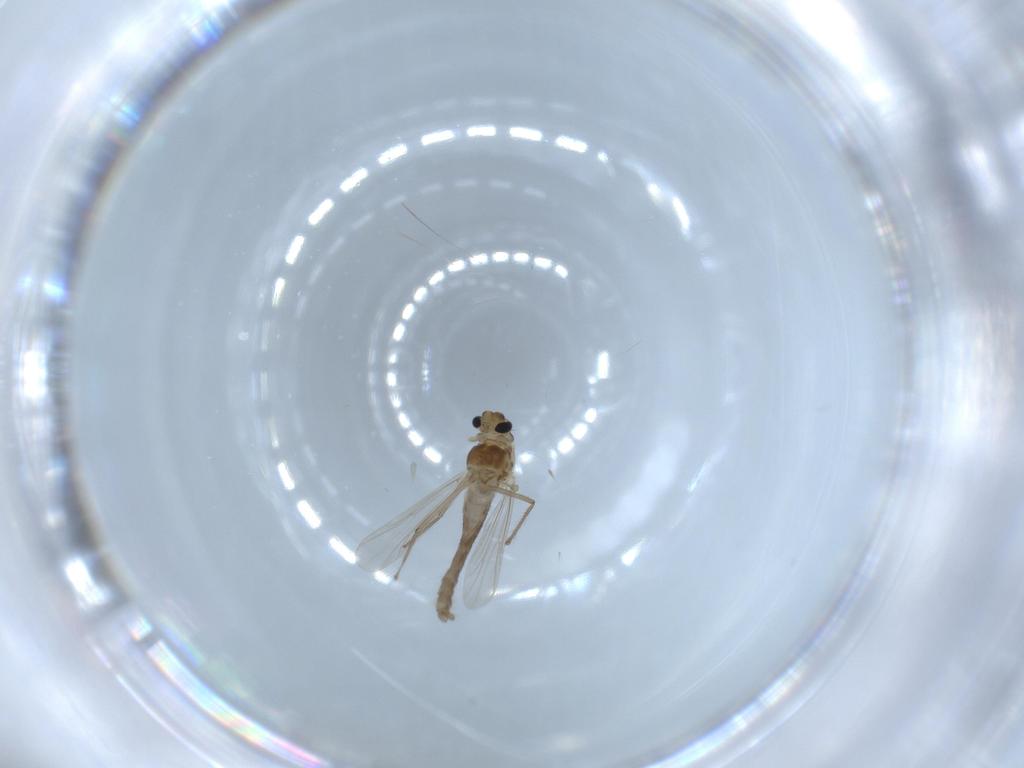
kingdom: Animalia
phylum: Arthropoda
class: Insecta
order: Diptera
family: Chironomidae
